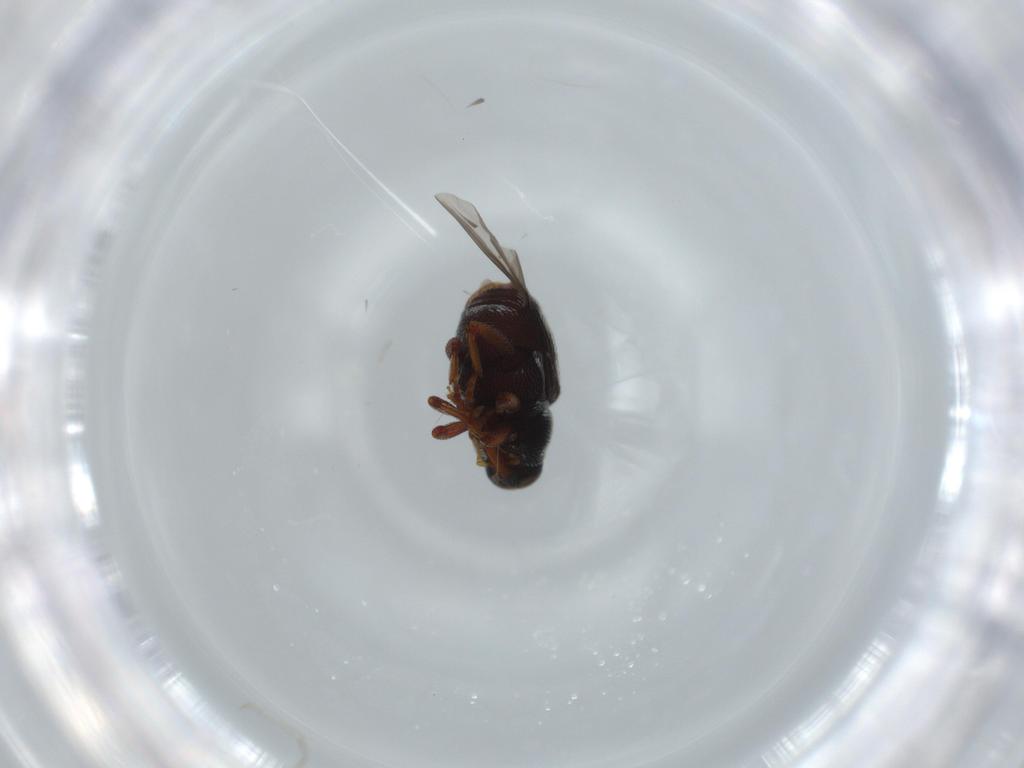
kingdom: Animalia
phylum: Arthropoda
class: Insecta
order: Coleoptera
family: Curculionidae
